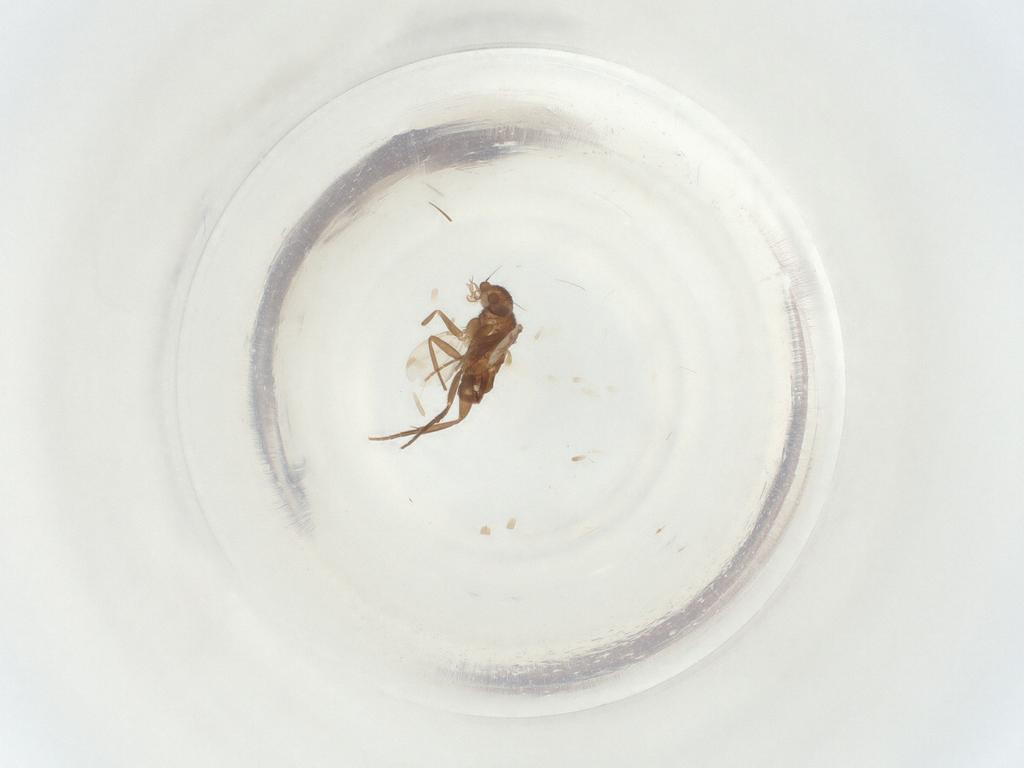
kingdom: Animalia
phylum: Arthropoda
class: Insecta
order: Diptera
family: Phoridae
